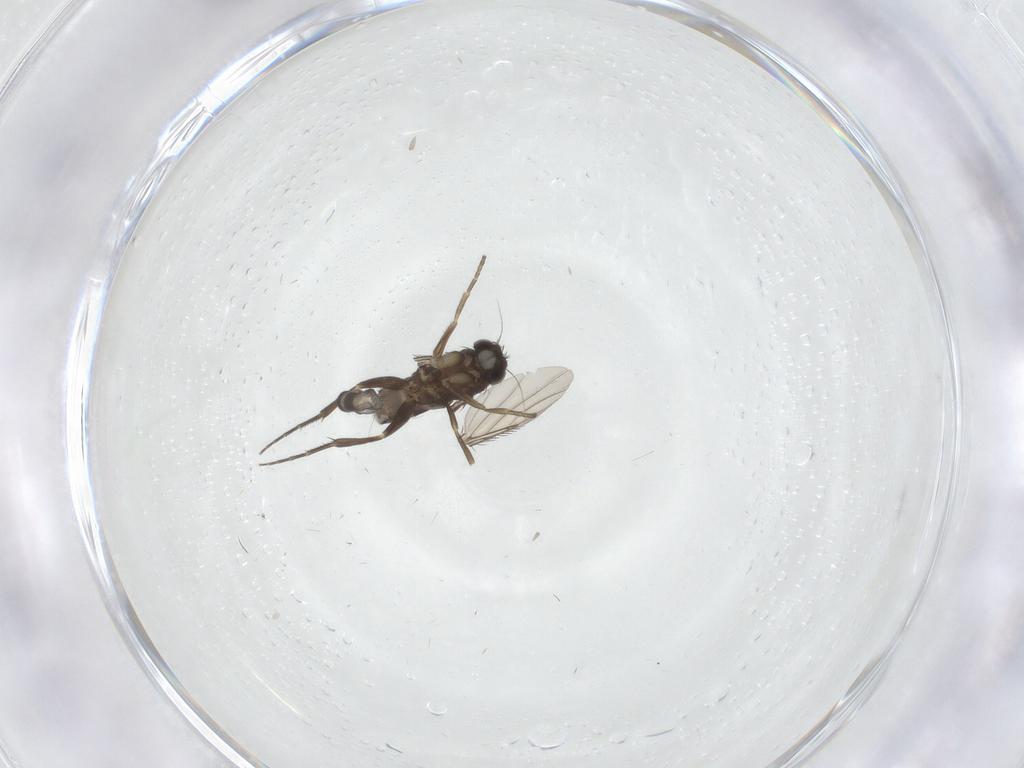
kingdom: Animalia
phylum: Arthropoda
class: Insecta
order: Diptera
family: Phoridae
